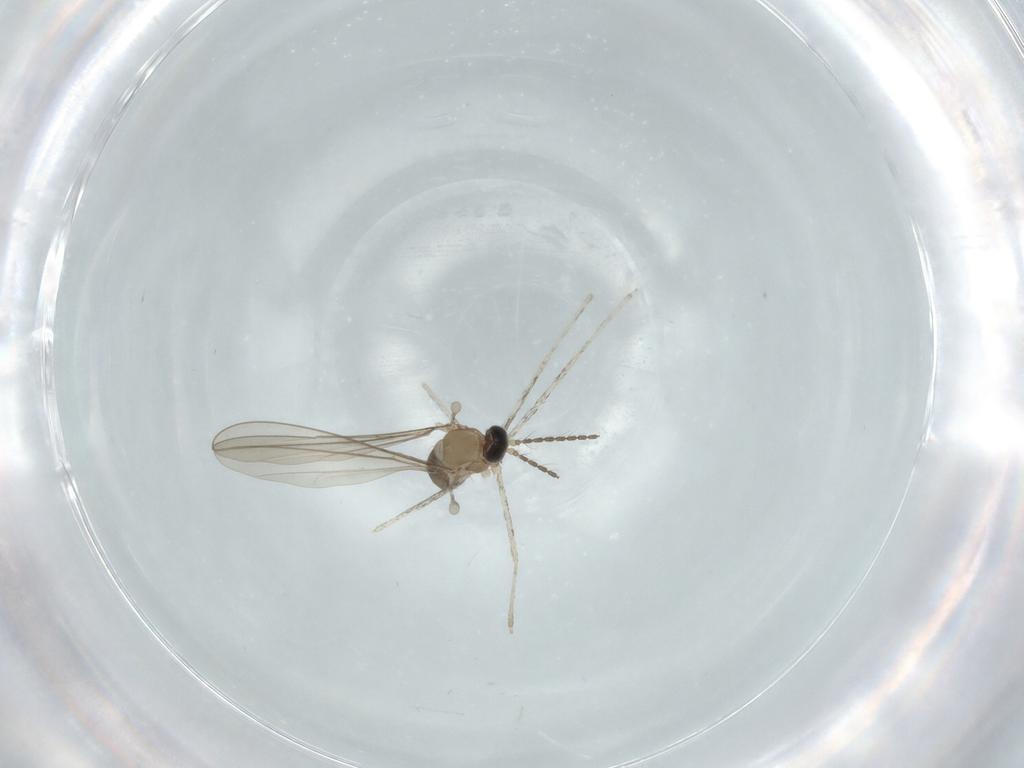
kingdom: Animalia
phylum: Arthropoda
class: Insecta
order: Diptera
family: Cecidomyiidae
